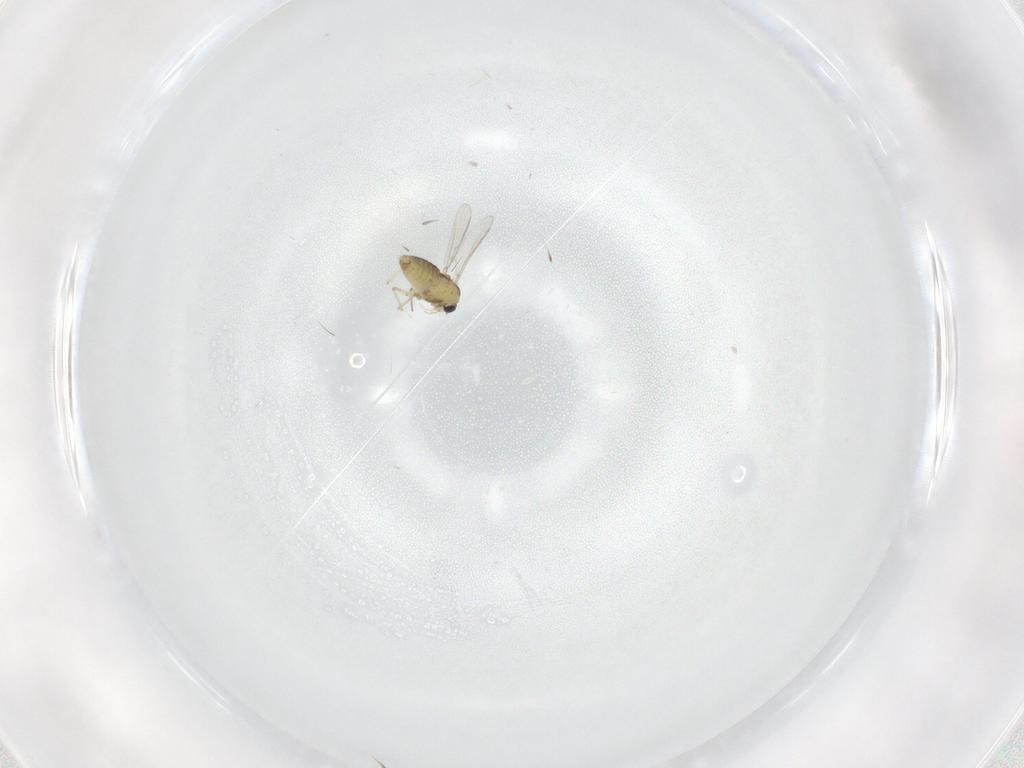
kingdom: Animalia
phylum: Arthropoda
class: Insecta
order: Diptera
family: Chironomidae
